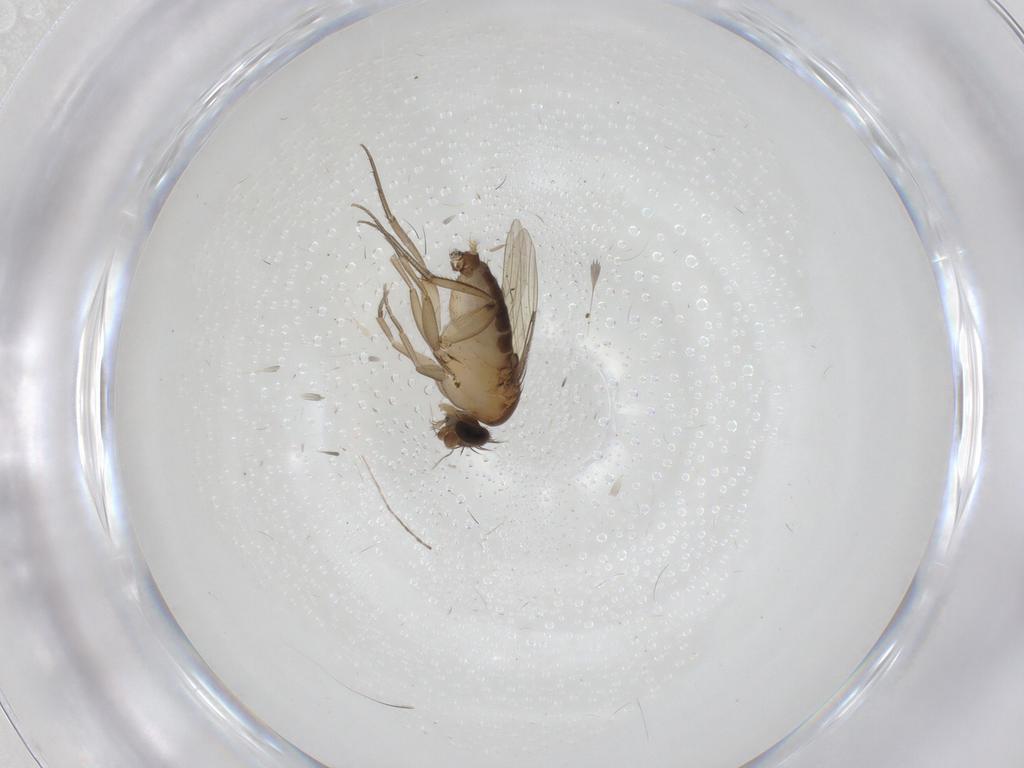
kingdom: Animalia
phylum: Arthropoda
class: Insecta
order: Diptera
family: Phoridae
